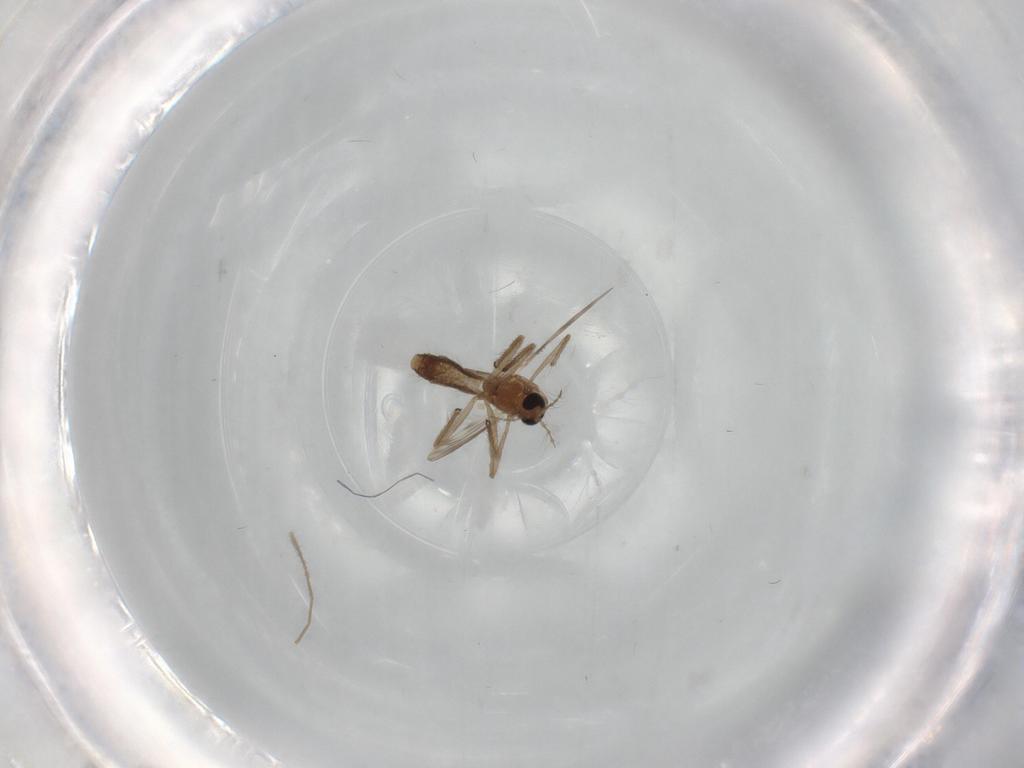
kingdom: Animalia
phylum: Arthropoda
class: Insecta
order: Diptera
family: Chironomidae
